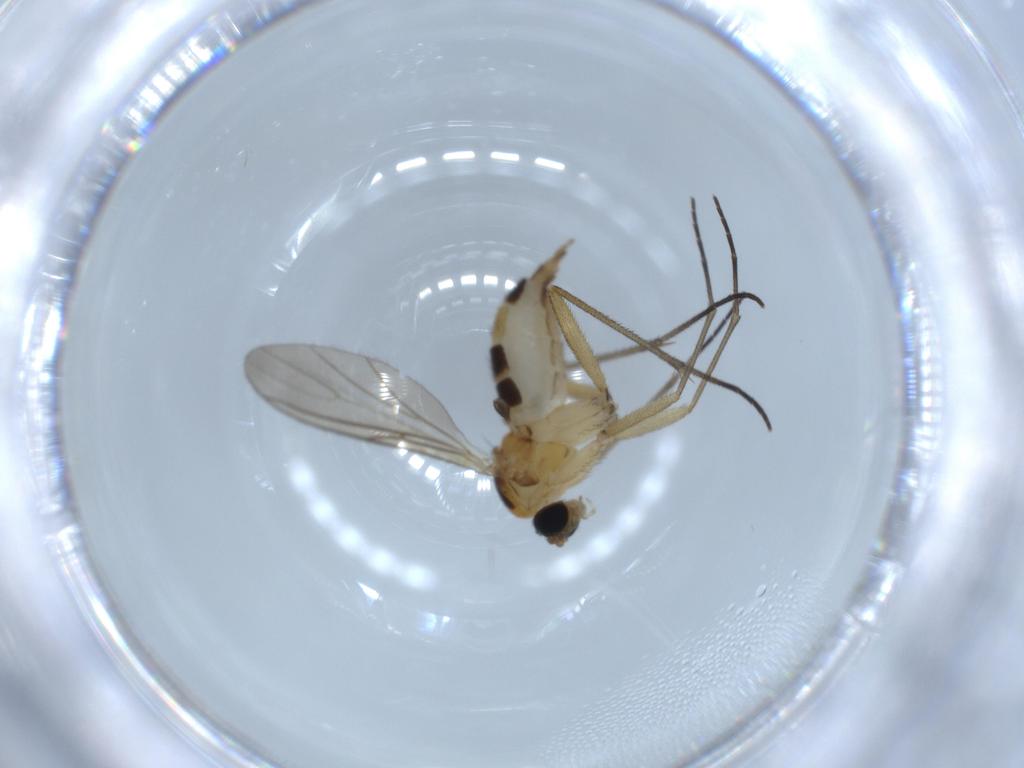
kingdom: Animalia
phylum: Arthropoda
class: Insecta
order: Diptera
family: Sciaridae
